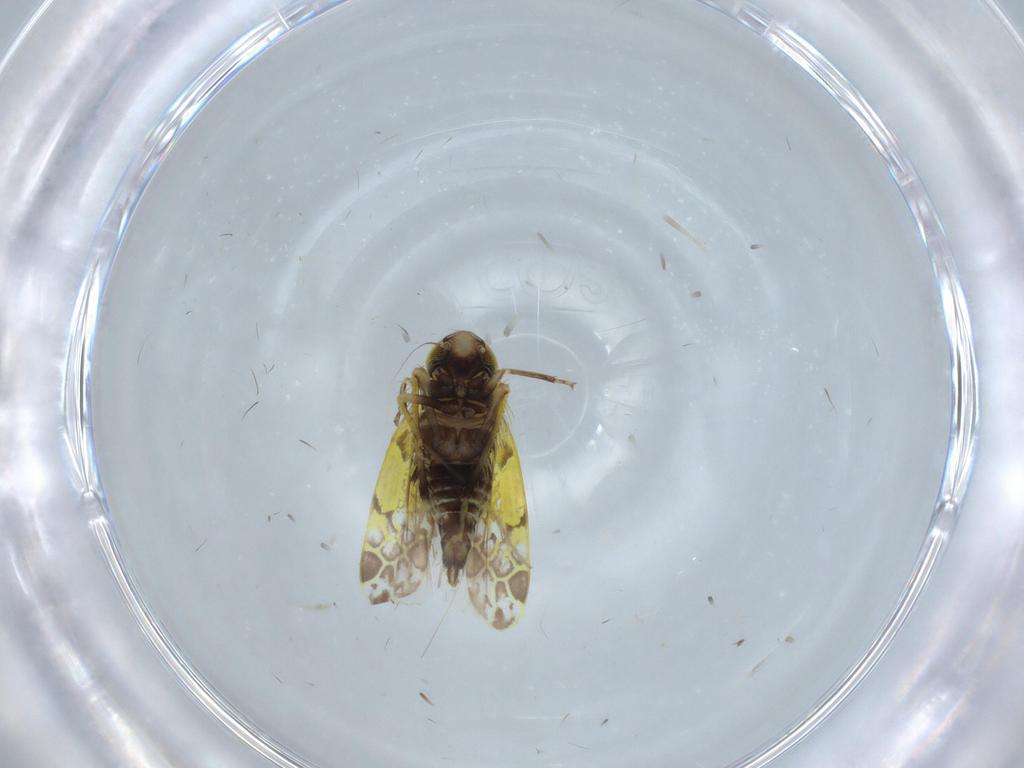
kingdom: Animalia
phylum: Arthropoda
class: Insecta
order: Hemiptera
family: Cicadellidae
